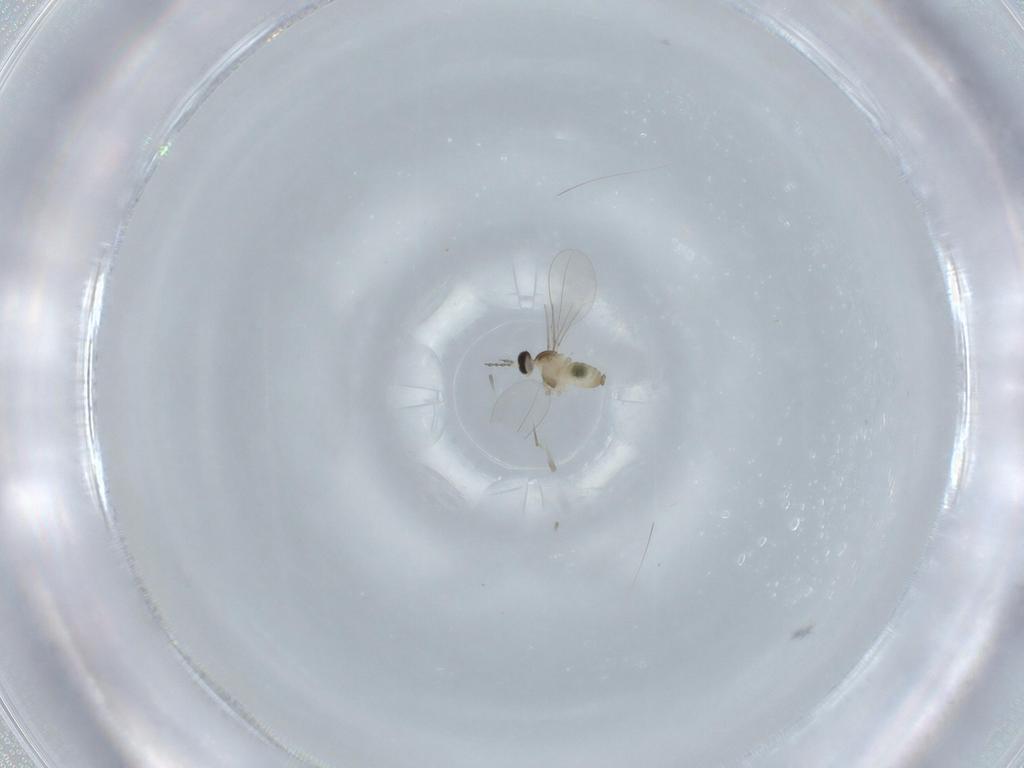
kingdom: Animalia
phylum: Arthropoda
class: Insecta
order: Diptera
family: Cecidomyiidae
